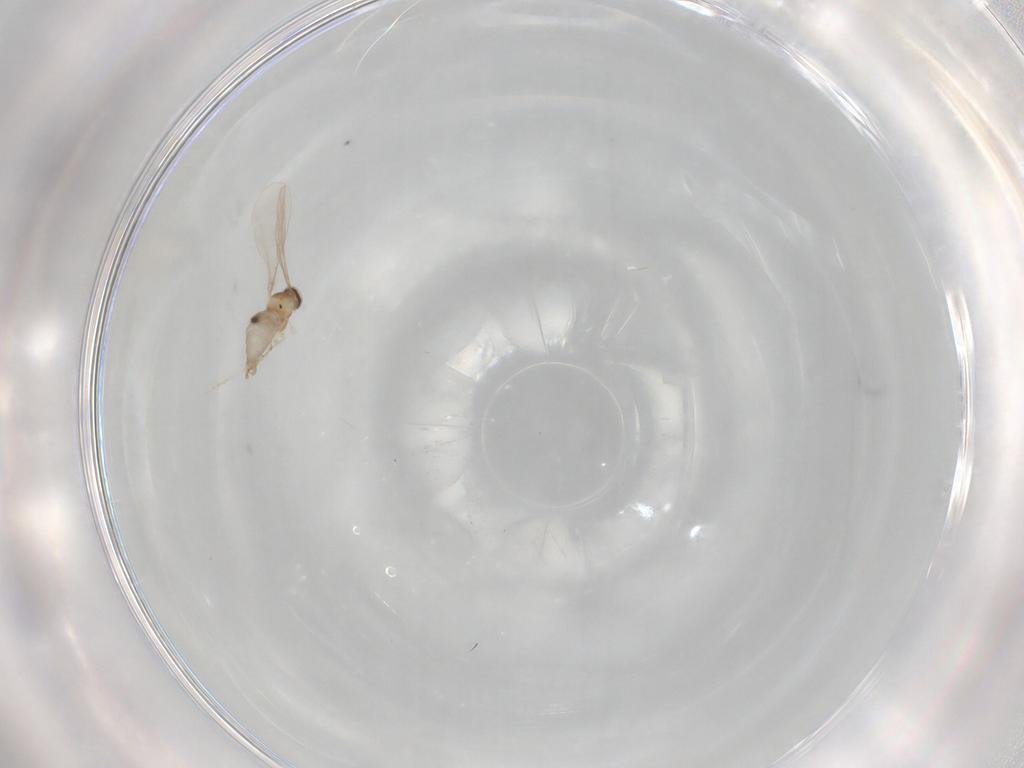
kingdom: Animalia
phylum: Arthropoda
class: Insecta
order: Diptera
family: Cecidomyiidae
